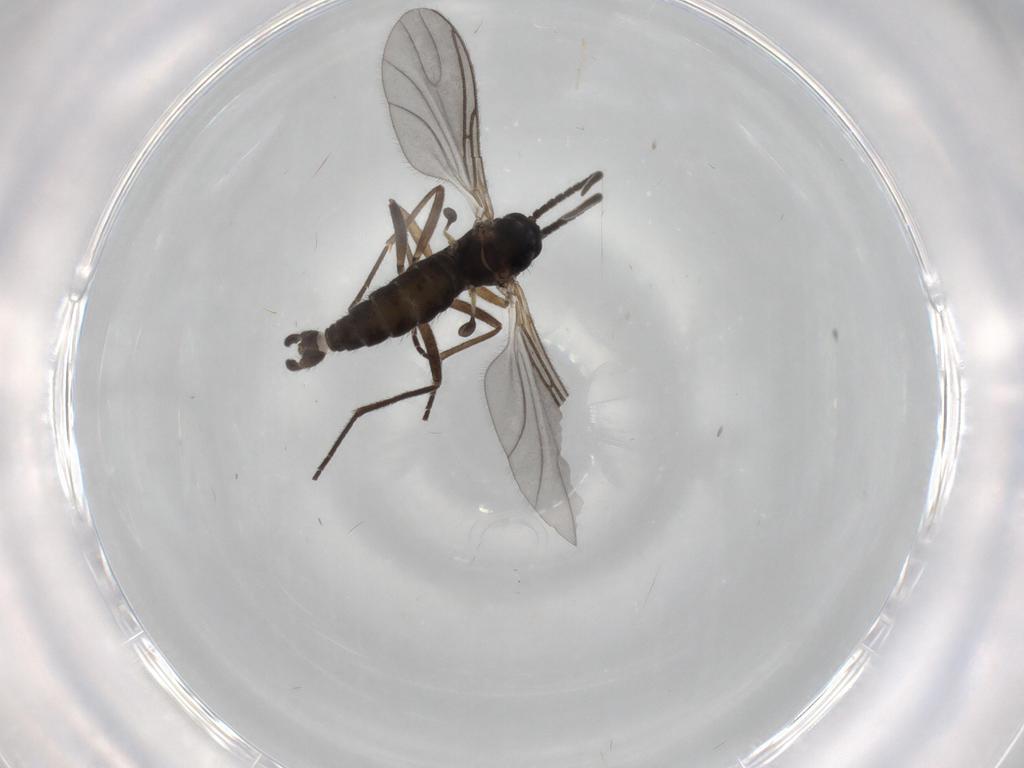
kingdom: Animalia
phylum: Arthropoda
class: Insecta
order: Diptera
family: Sciaridae
